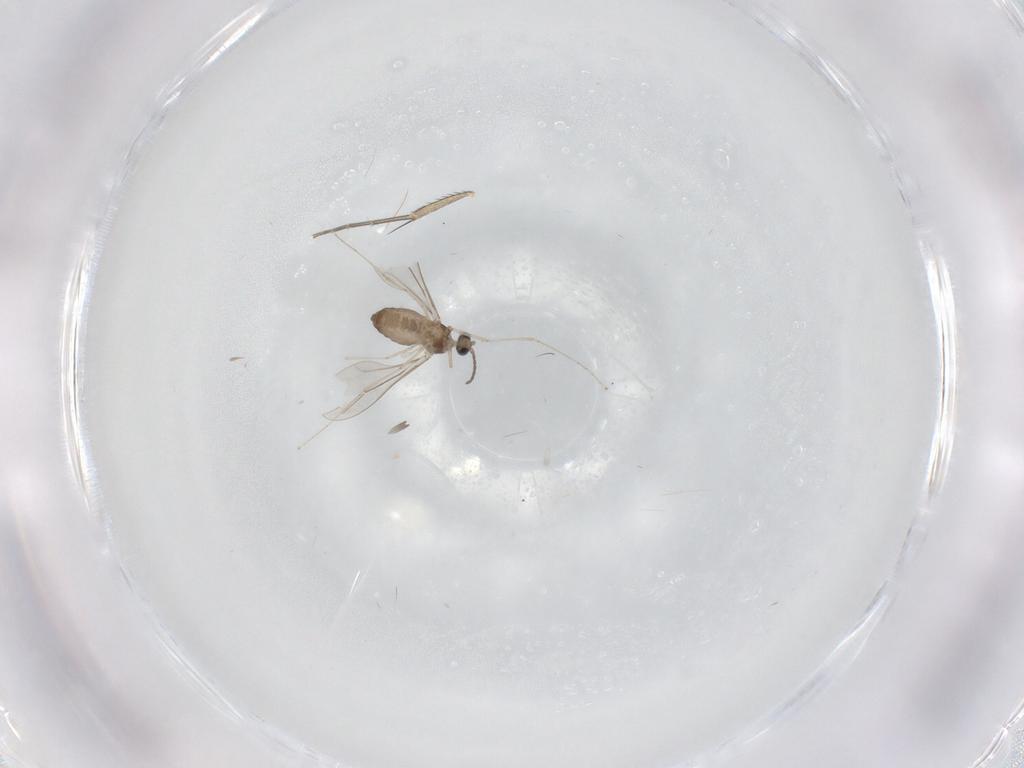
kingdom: Animalia
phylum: Arthropoda
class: Insecta
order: Diptera
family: Cecidomyiidae
